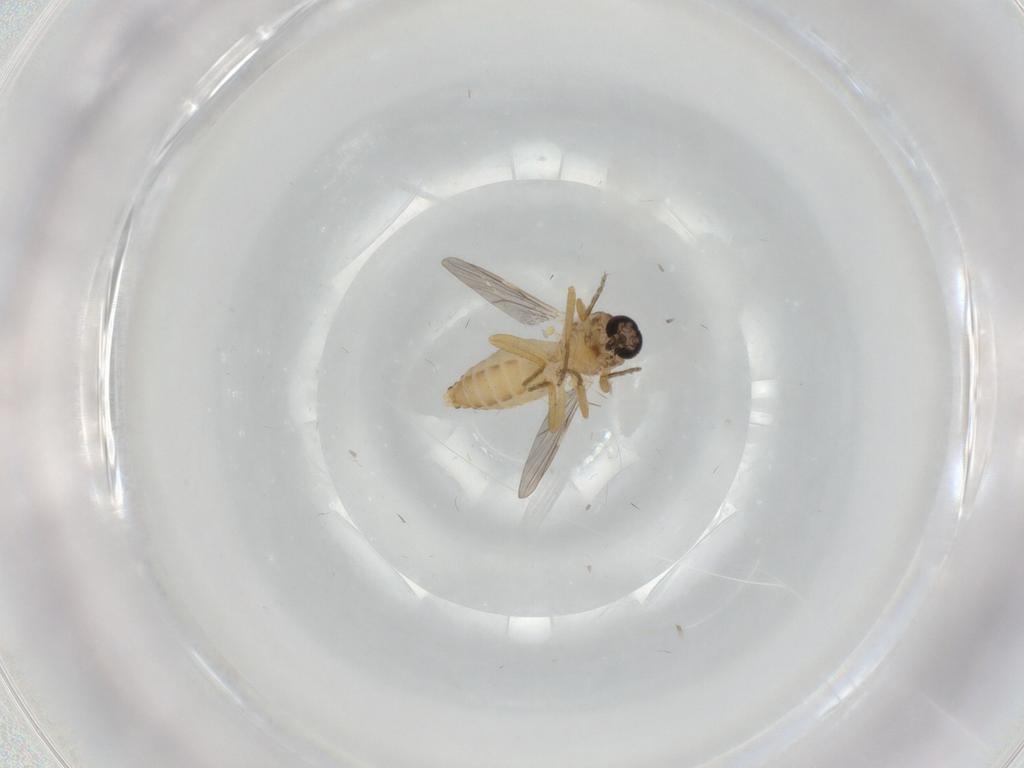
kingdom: Animalia
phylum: Arthropoda
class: Insecta
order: Diptera
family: Ceratopogonidae
